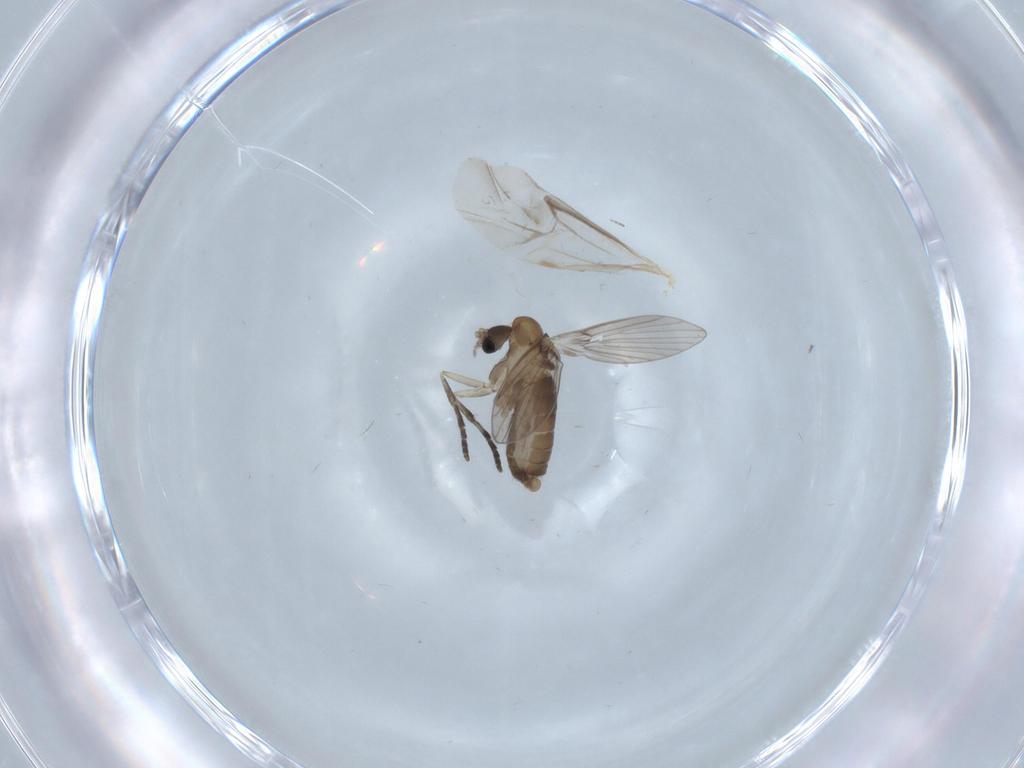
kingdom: Animalia
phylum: Arthropoda
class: Insecta
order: Diptera
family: Psychodidae
